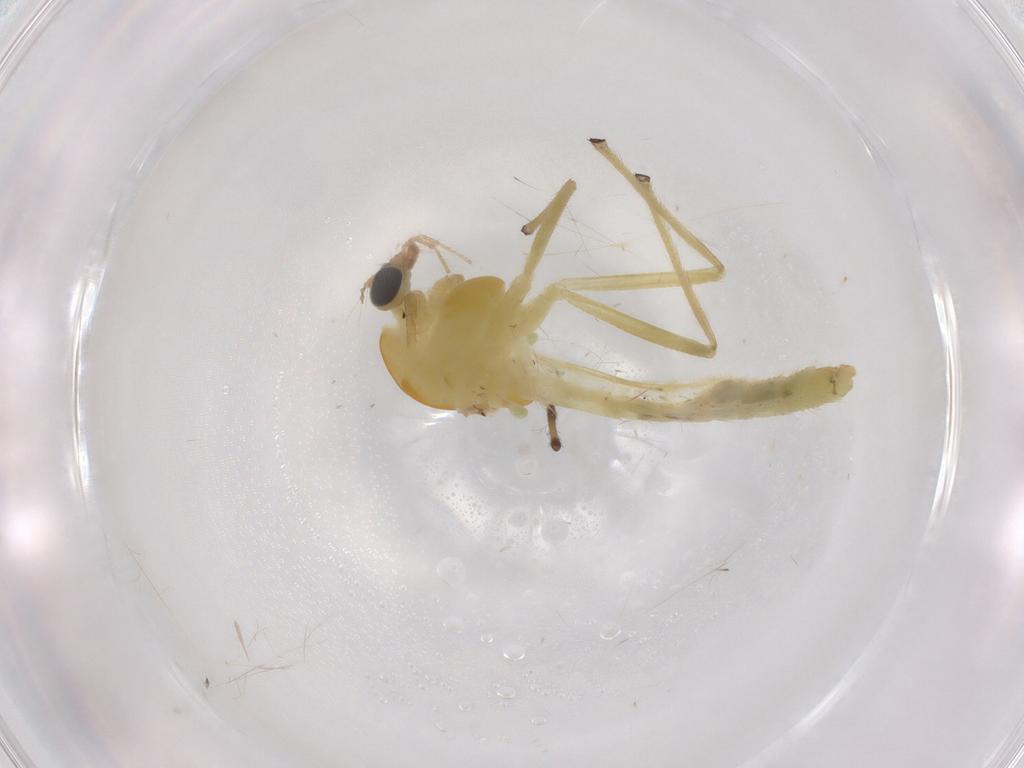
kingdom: Animalia
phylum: Arthropoda
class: Insecta
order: Diptera
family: Chironomidae
